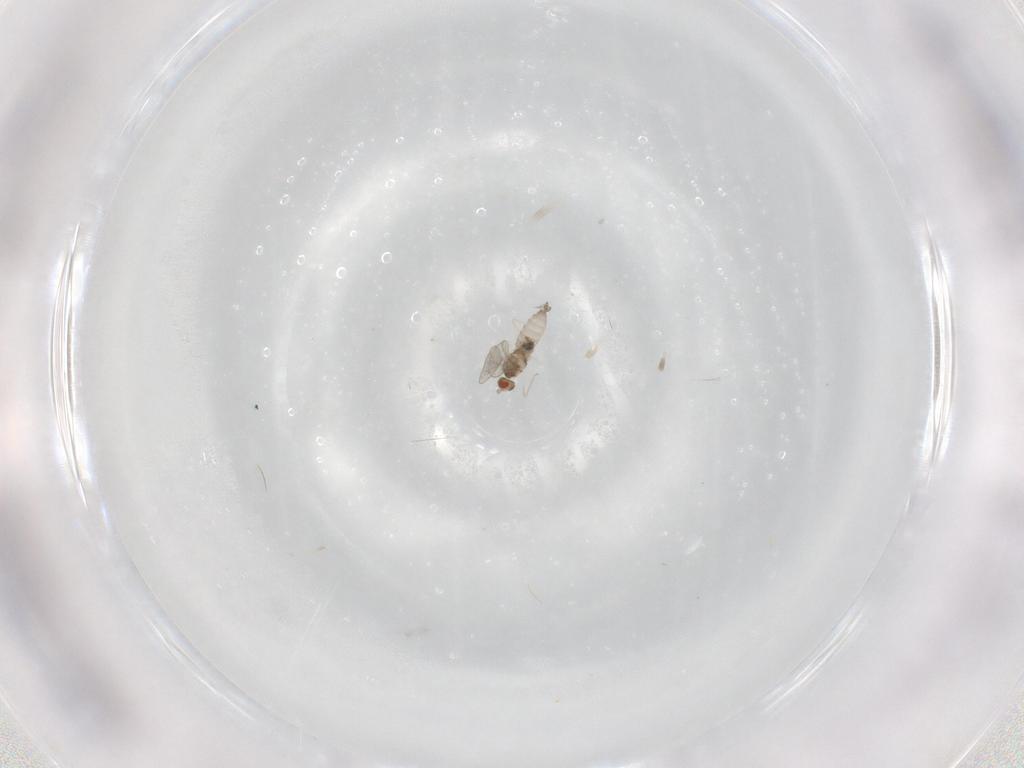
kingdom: Animalia
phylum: Arthropoda
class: Insecta
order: Diptera
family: Cecidomyiidae
